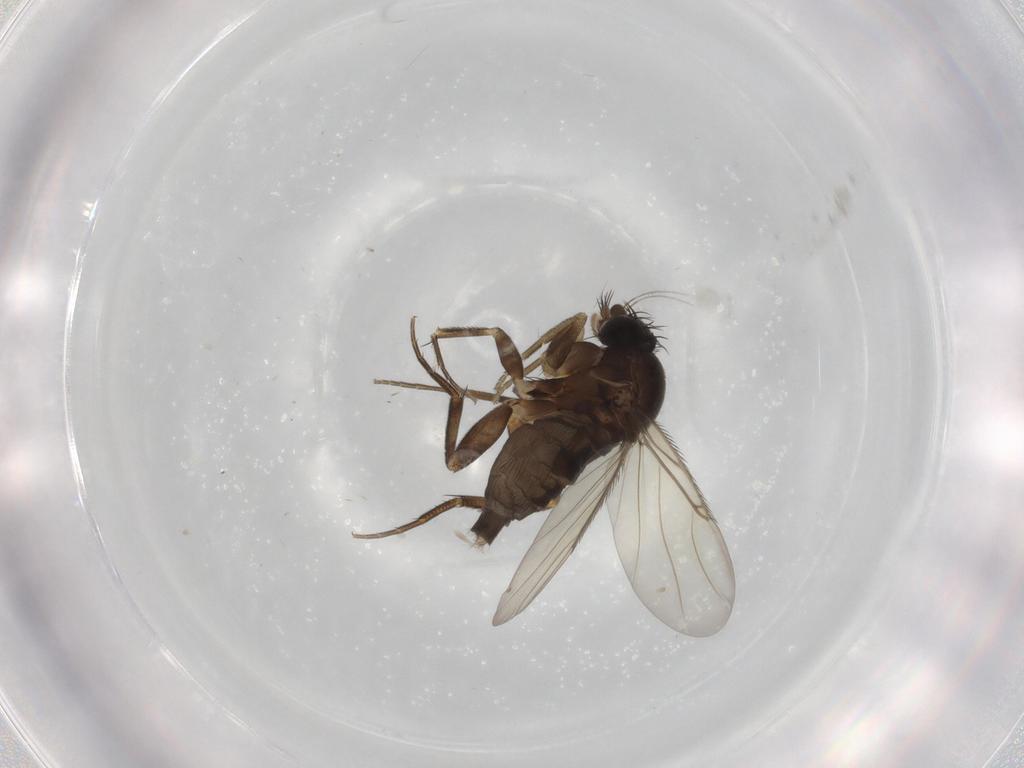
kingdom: Animalia
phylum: Arthropoda
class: Insecta
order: Diptera
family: Phoridae
